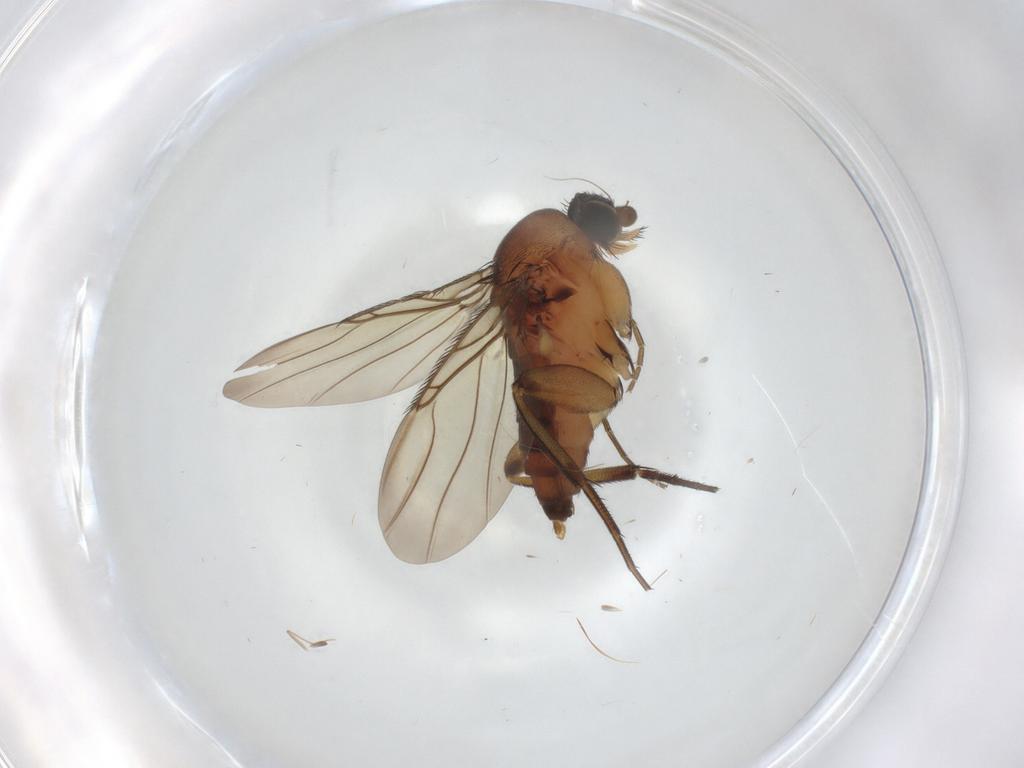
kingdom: Animalia
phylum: Arthropoda
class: Insecta
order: Diptera
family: Phoridae
